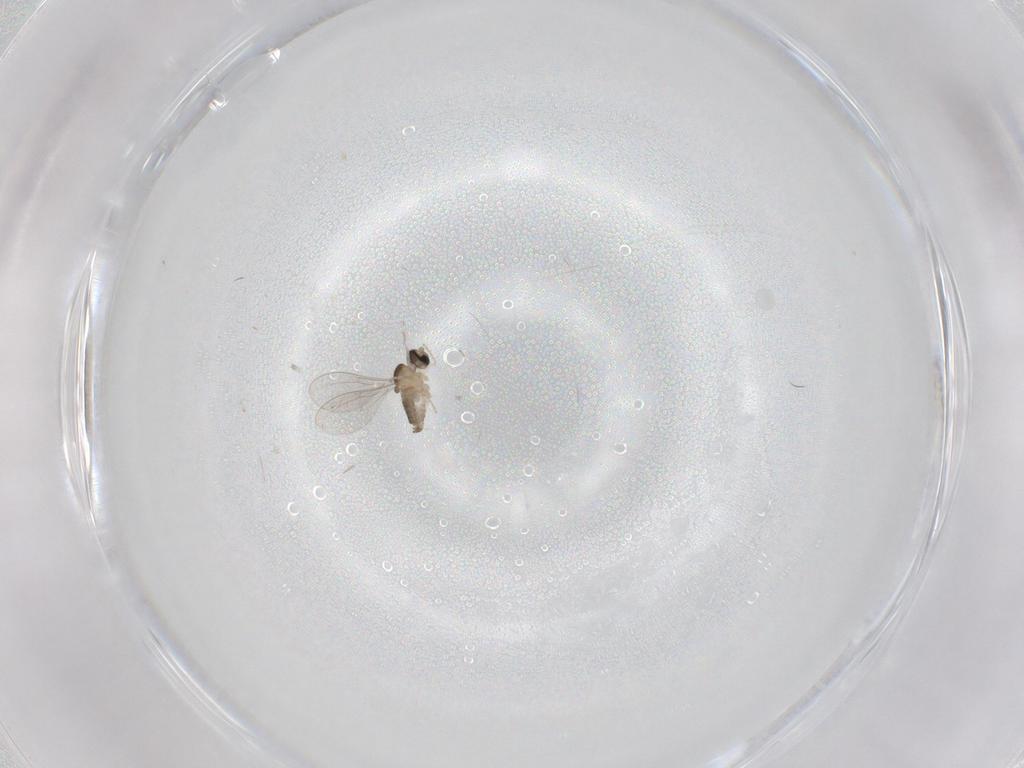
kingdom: Animalia
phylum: Arthropoda
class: Insecta
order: Diptera
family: Cecidomyiidae
